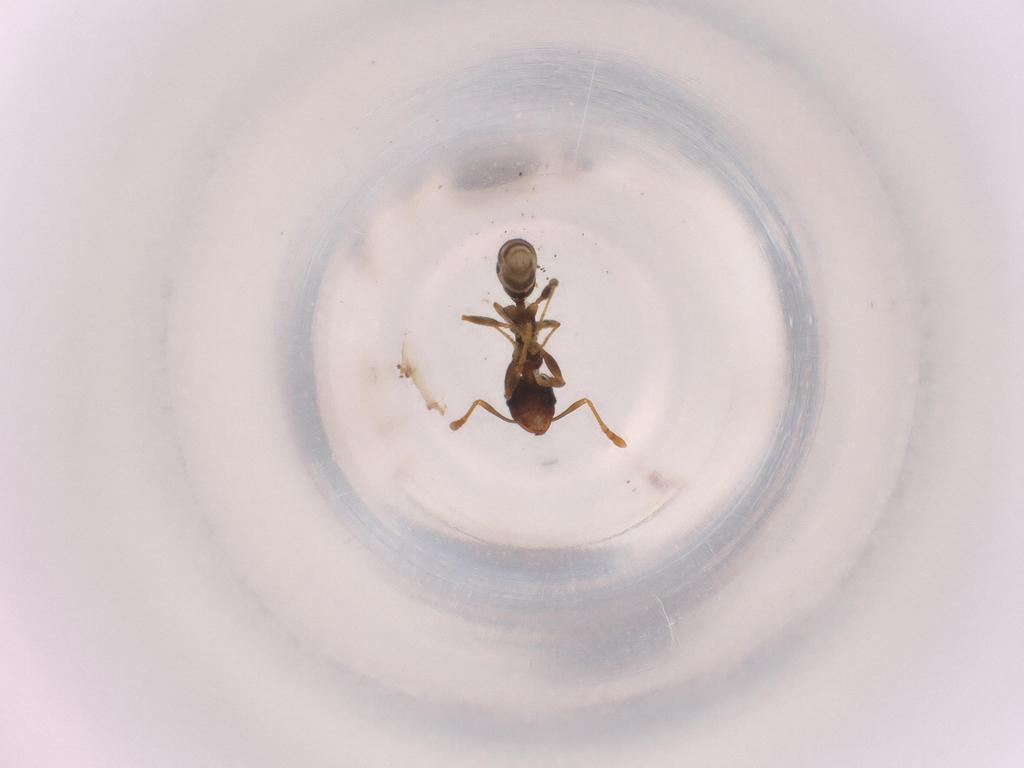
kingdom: Animalia
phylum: Arthropoda
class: Insecta
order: Hymenoptera
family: Formicidae
